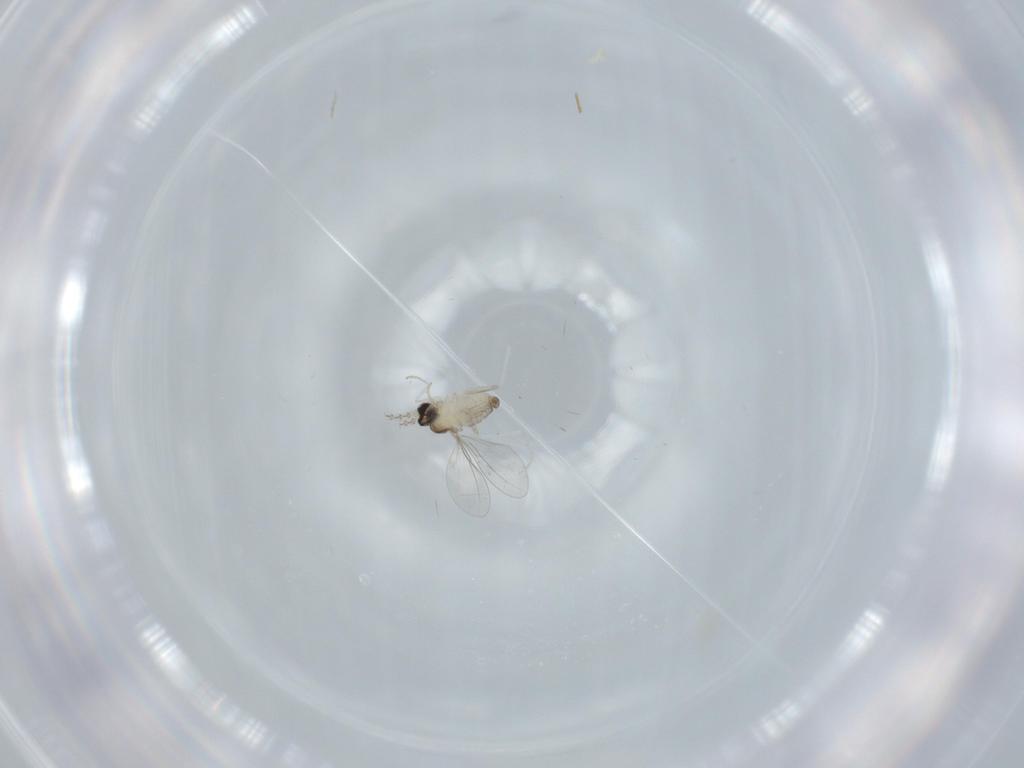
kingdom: Animalia
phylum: Arthropoda
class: Insecta
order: Diptera
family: Cecidomyiidae
